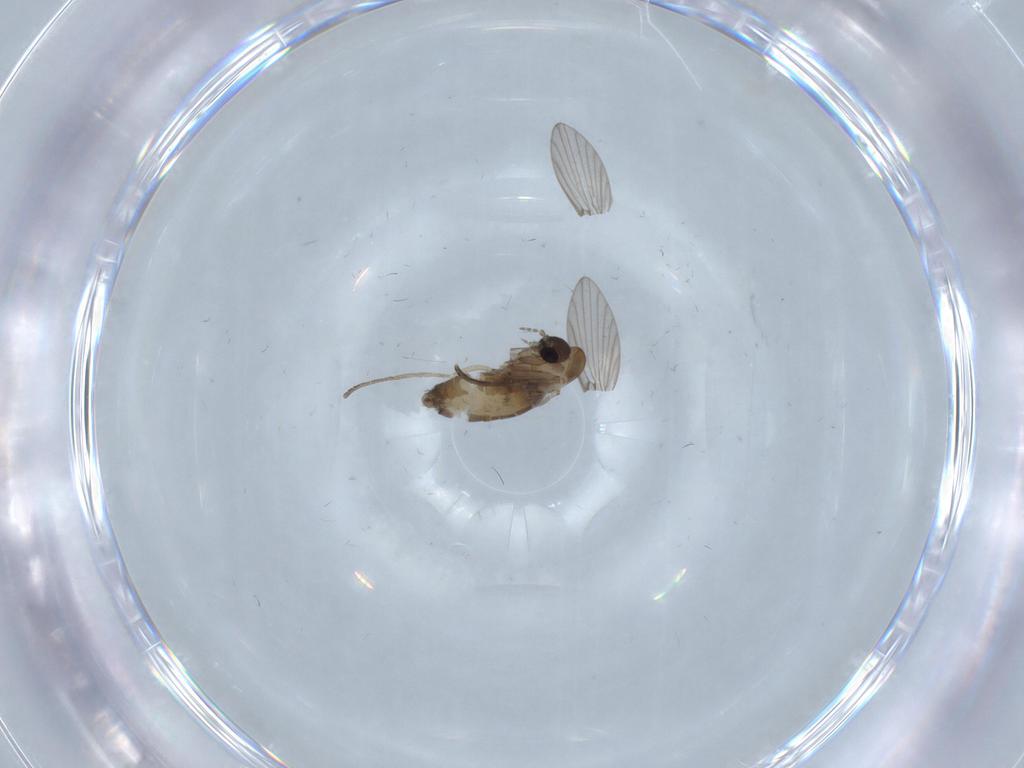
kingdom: Animalia
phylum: Arthropoda
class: Insecta
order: Diptera
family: Psychodidae
